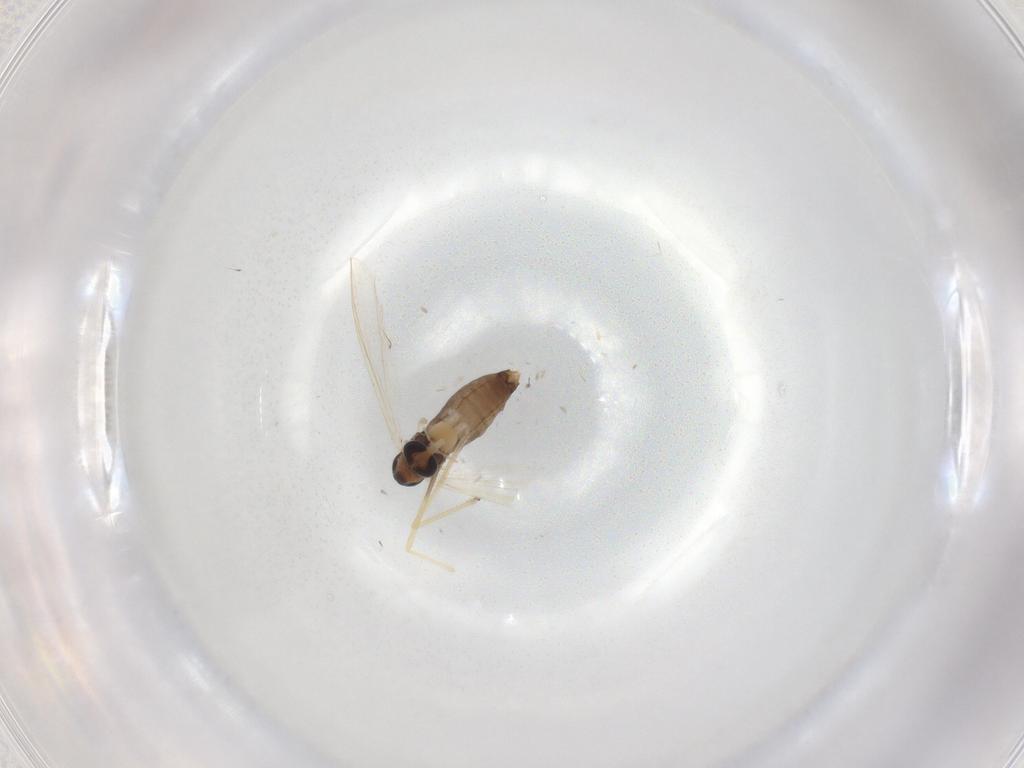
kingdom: Animalia
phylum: Arthropoda
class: Insecta
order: Diptera
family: Chironomidae
